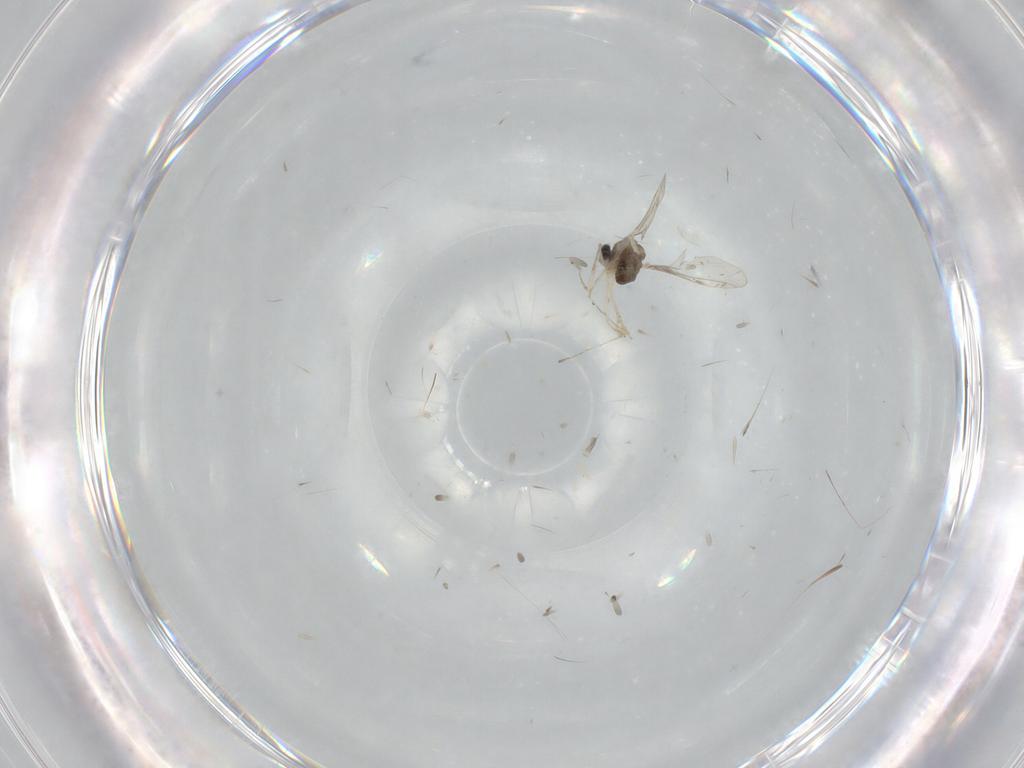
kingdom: Animalia
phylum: Arthropoda
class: Insecta
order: Diptera
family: Cecidomyiidae
